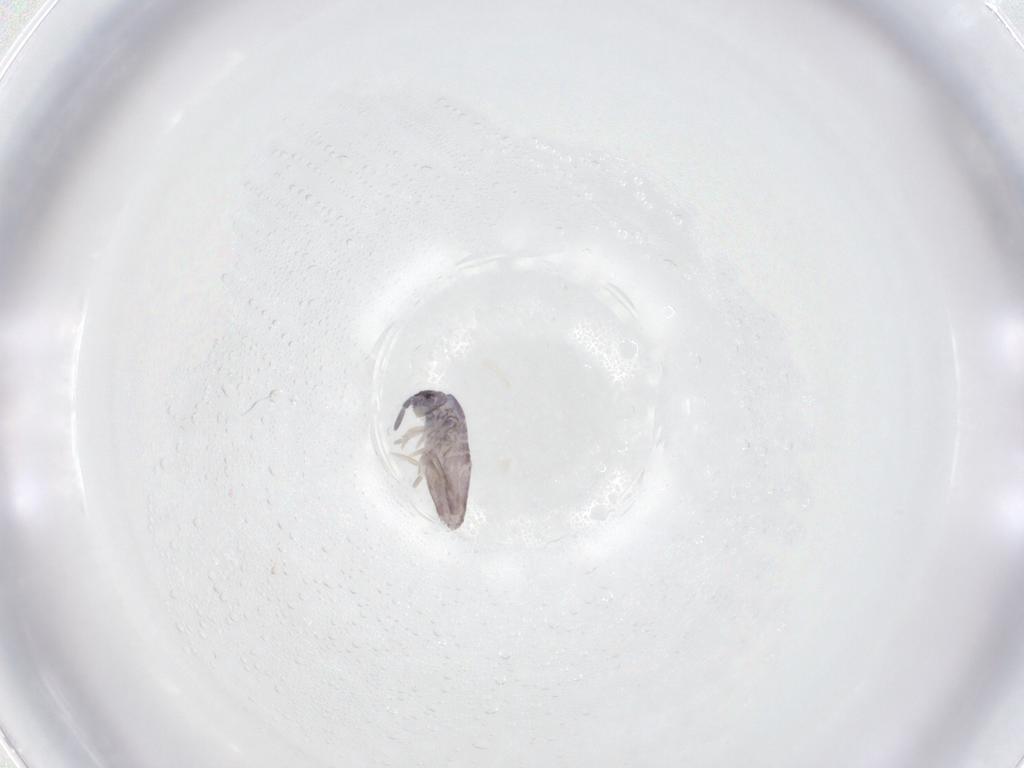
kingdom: Animalia
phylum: Arthropoda
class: Collembola
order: Entomobryomorpha
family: Entomobryidae
